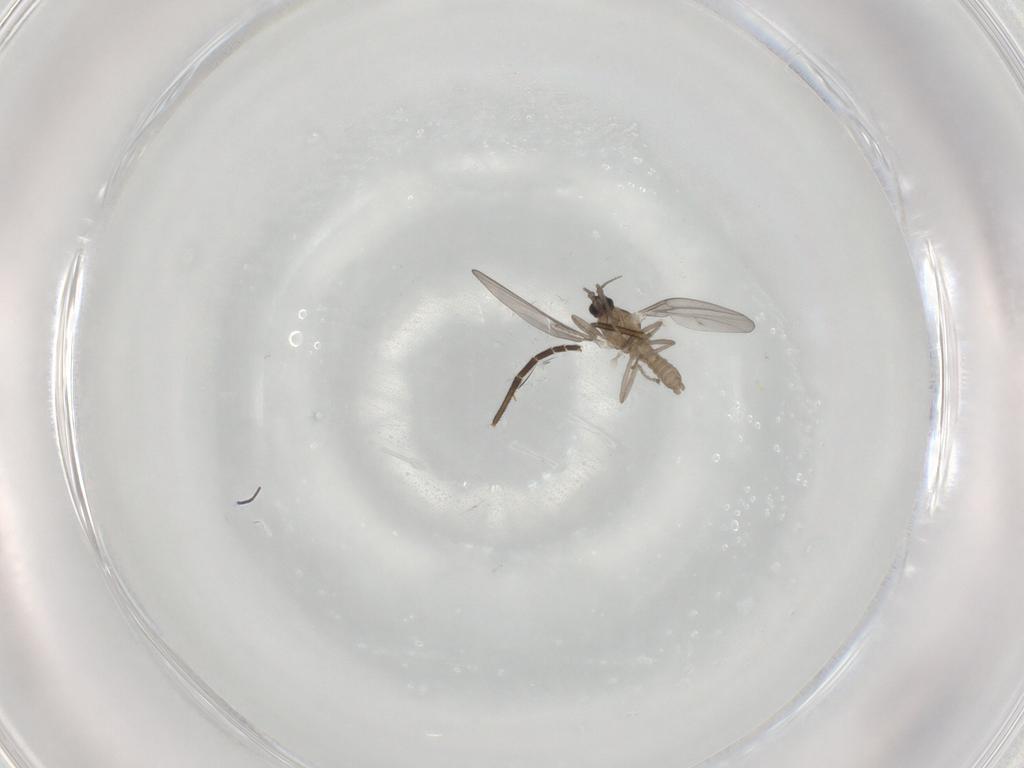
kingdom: Animalia
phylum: Arthropoda
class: Insecta
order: Diptera
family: Cecidomyiidae
